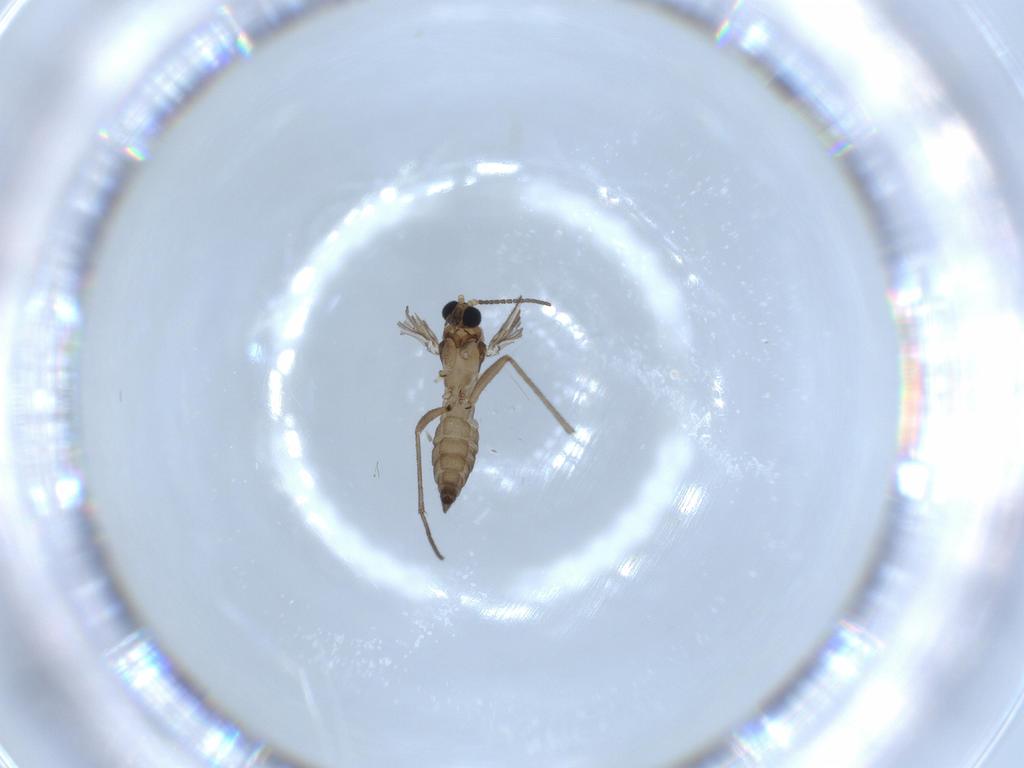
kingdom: Animalia
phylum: Arthropoda
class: Insecta
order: Diptera
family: Sciaridae
